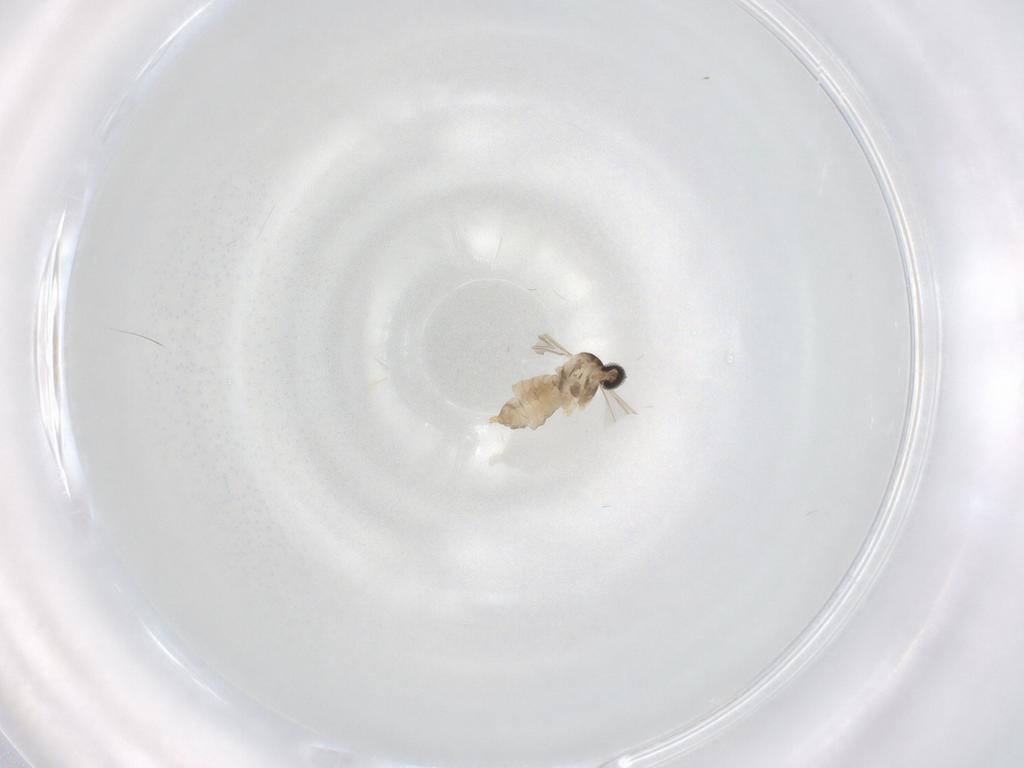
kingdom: Animalia
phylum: Arthropoda
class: Insecta
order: Diptera
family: Cecidomyiidae
